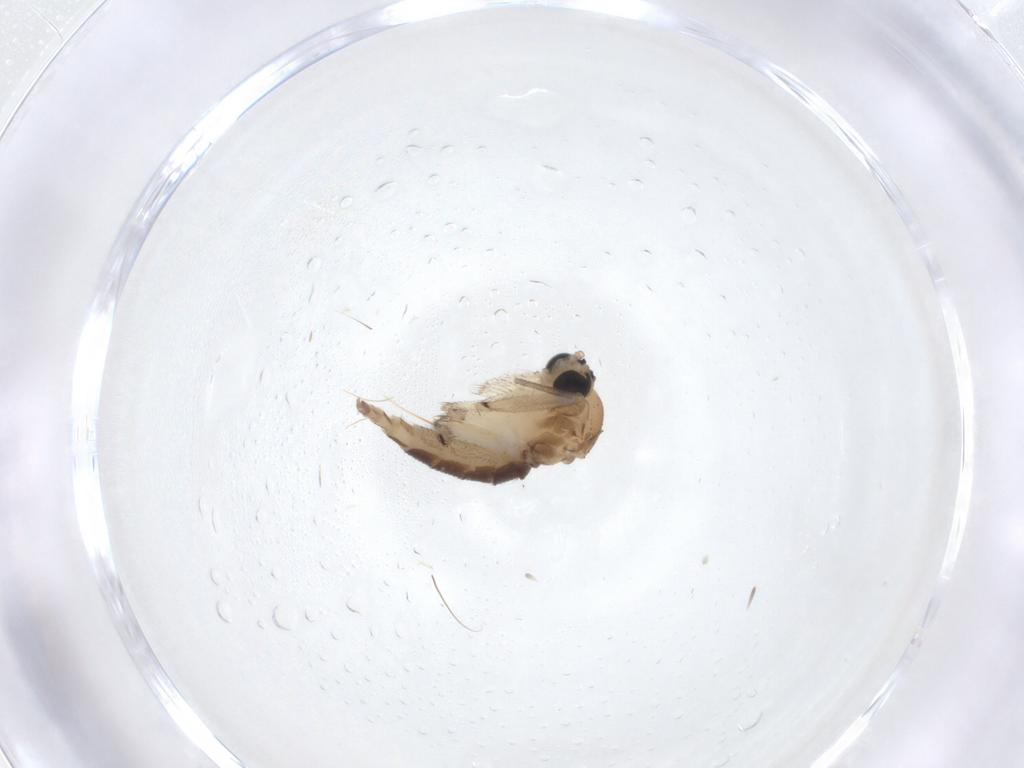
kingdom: Animalia
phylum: Arthropoda
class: Insecta
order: Diptera
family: Sciaridae
